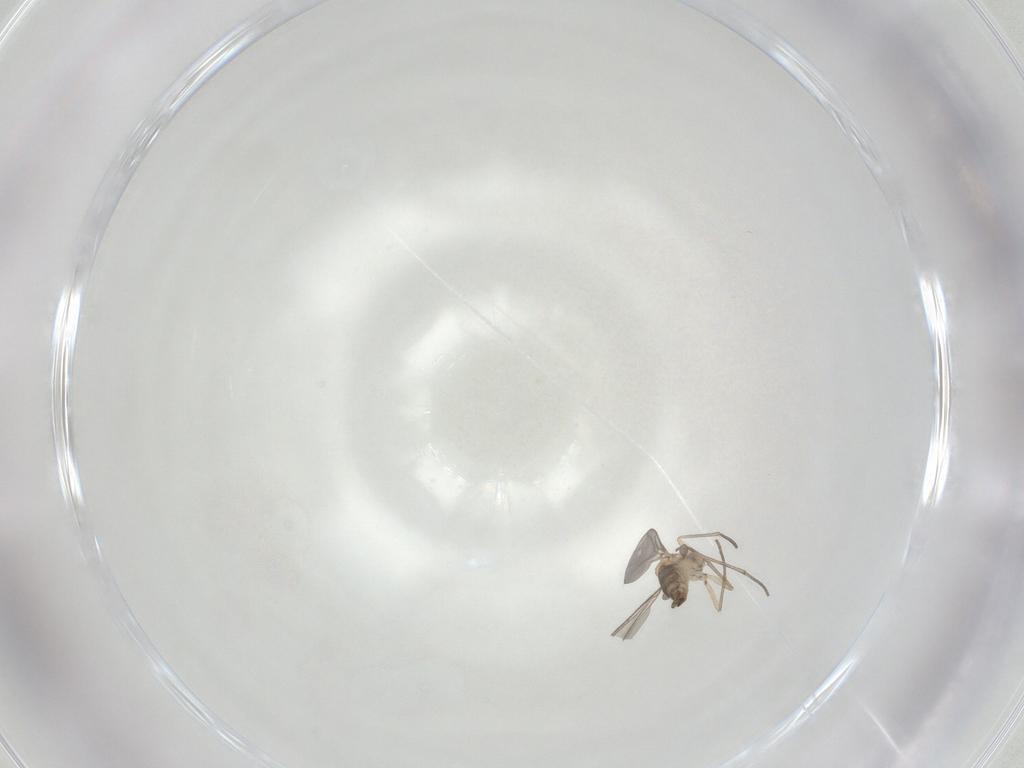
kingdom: Animalia
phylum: Arthropoda
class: Insecta
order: Diptera
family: Sciaridae
